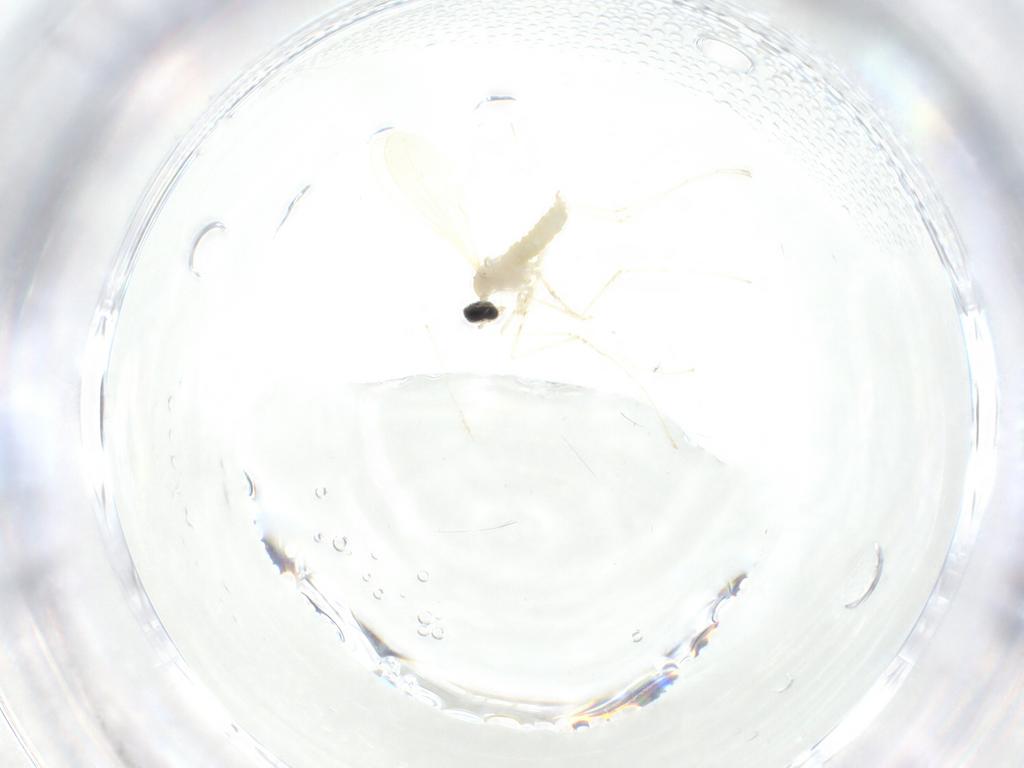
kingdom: Animalia
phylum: Arthropoda
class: Insecta
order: Diptera
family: Cecidomyiidae
